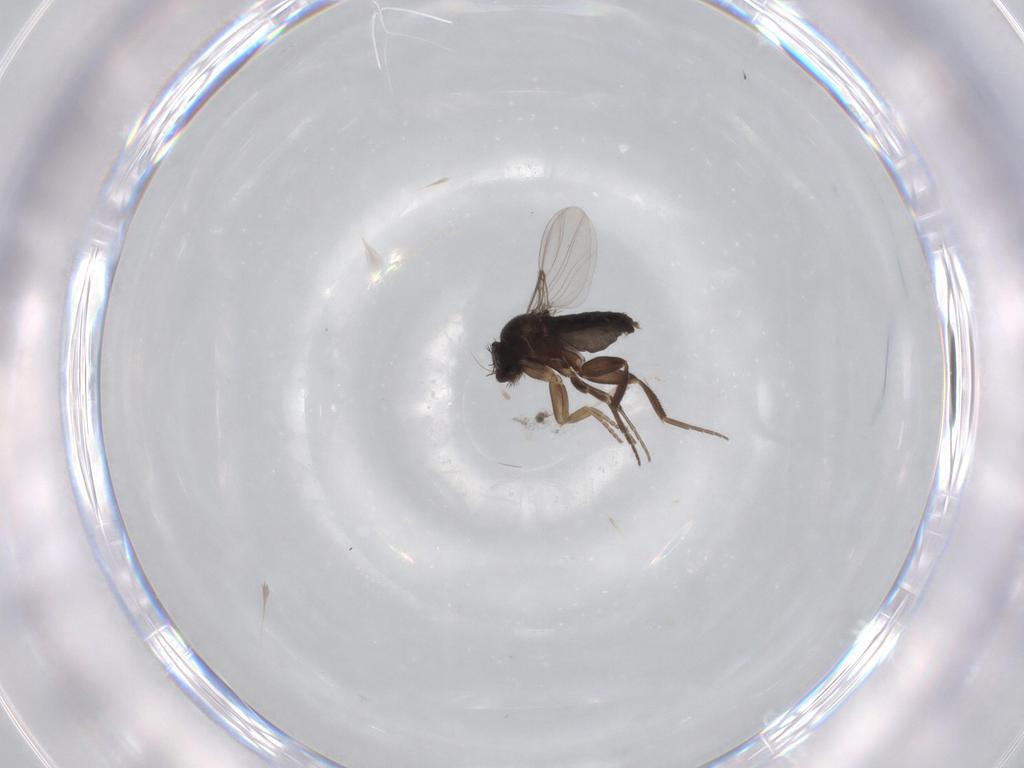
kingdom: Animalia
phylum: Arthropoda
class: Insecta
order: Diptera
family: Phoridae
